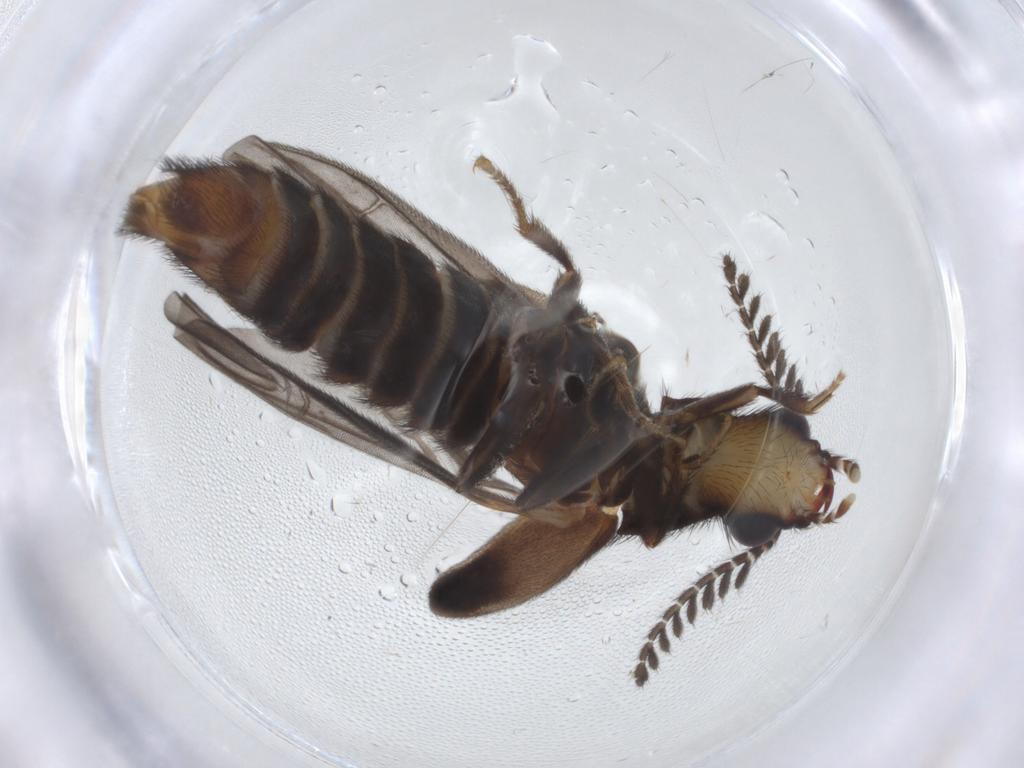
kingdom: Animalia
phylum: Arthropoda
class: Insecta
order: Coleoptera
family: Phengodidae
